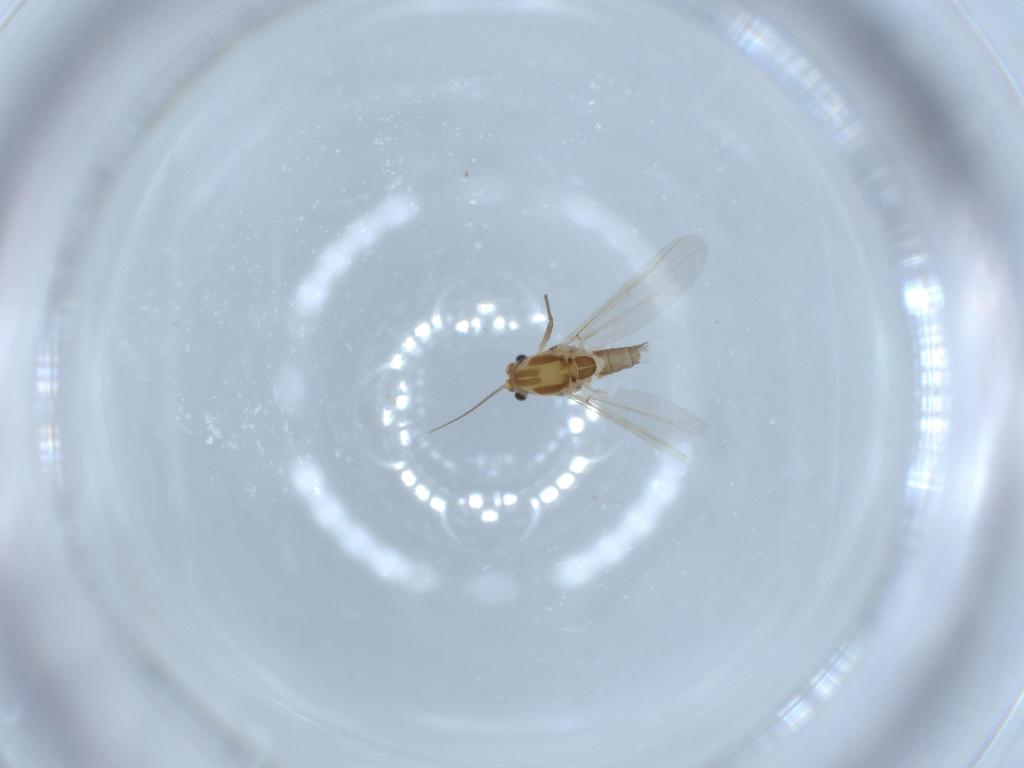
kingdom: Animalia
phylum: Arthropoda
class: Insecta
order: Diptera
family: Chironomidae
